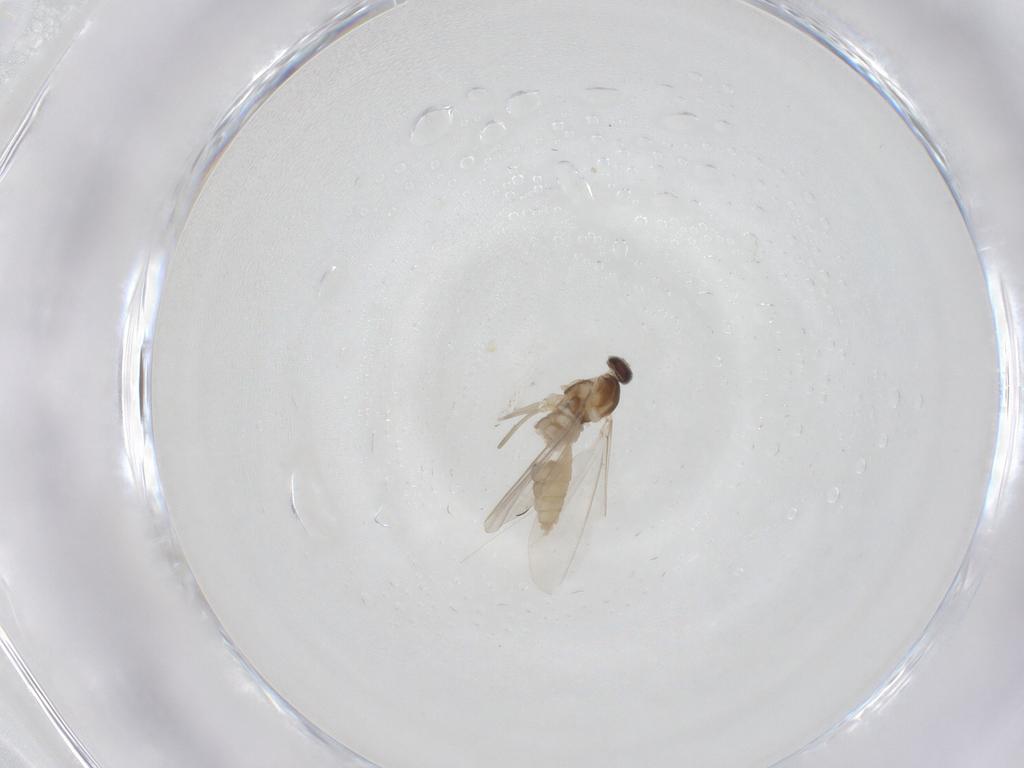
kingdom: Animalia
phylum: Arthropoda
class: Insecta
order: Diptera
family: Cecidomyiidae
